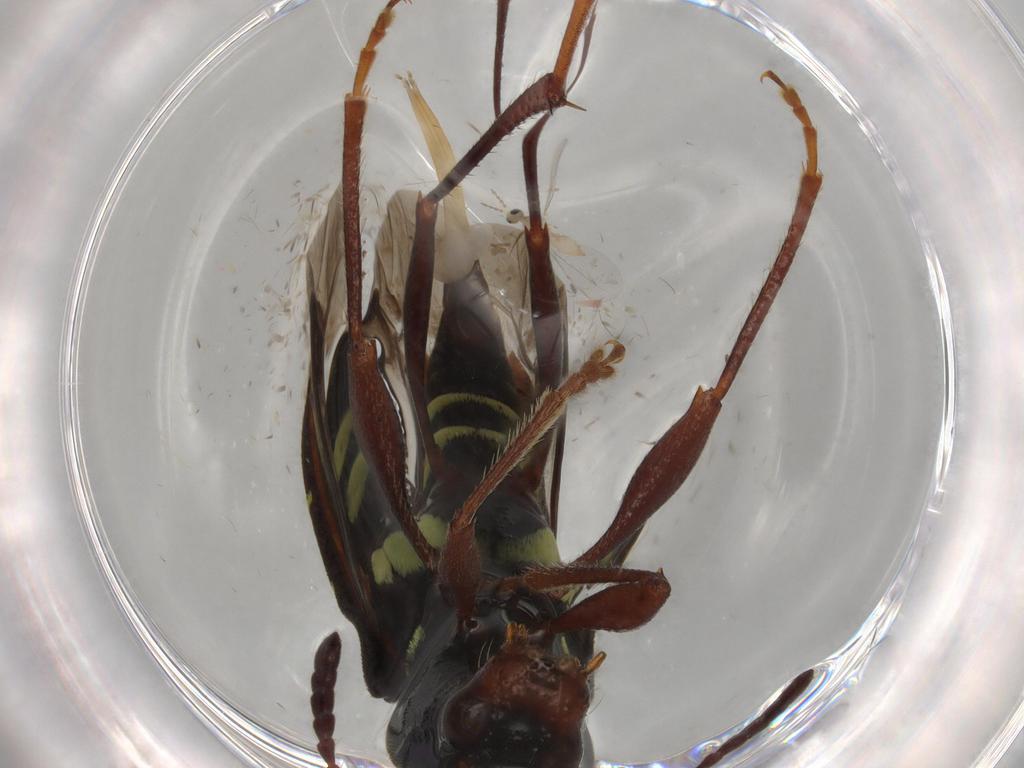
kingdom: Animalia
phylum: Arthropoda
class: Insecta
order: Coleoptera
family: Cerambycidae
